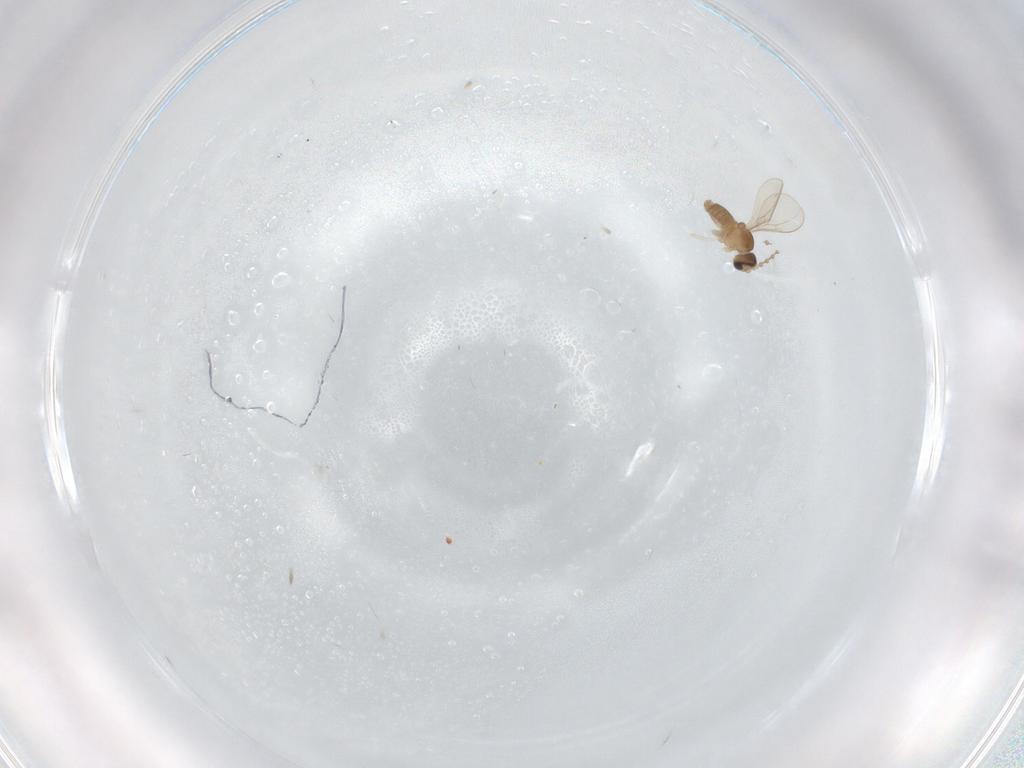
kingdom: Animalia
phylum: Arthropoda
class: Insecta
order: Diptera
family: Cecidomyiidae
